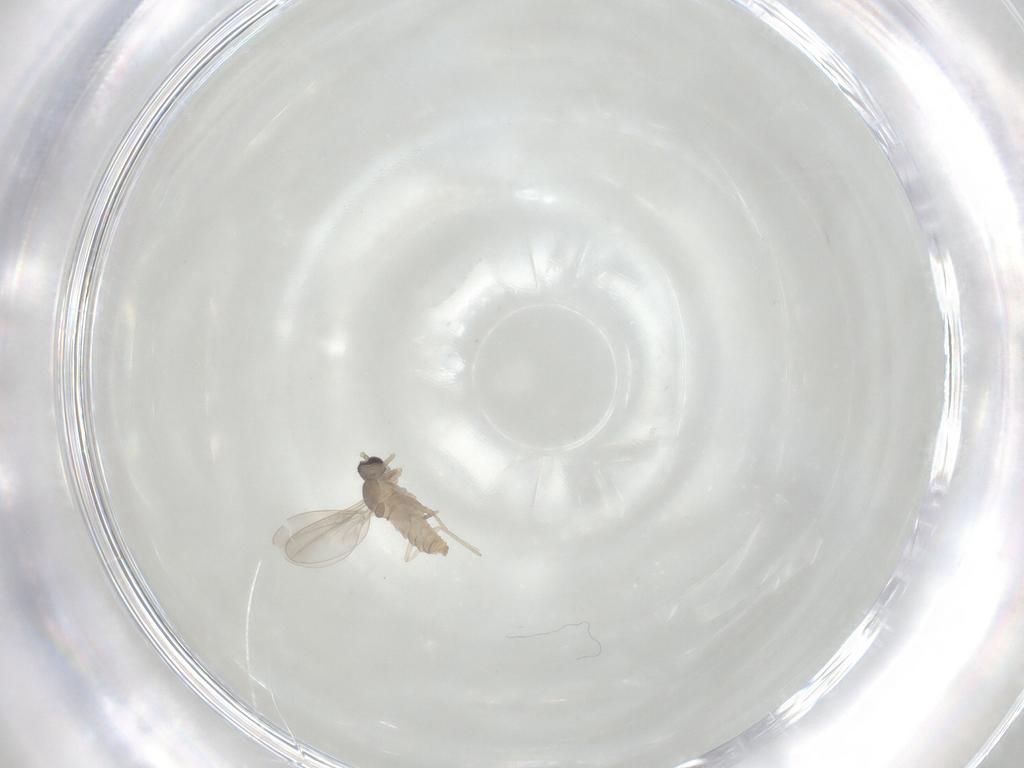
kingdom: Animalia
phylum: Arthropoda
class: Insecta
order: Diptera
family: Cecidomyiidae
